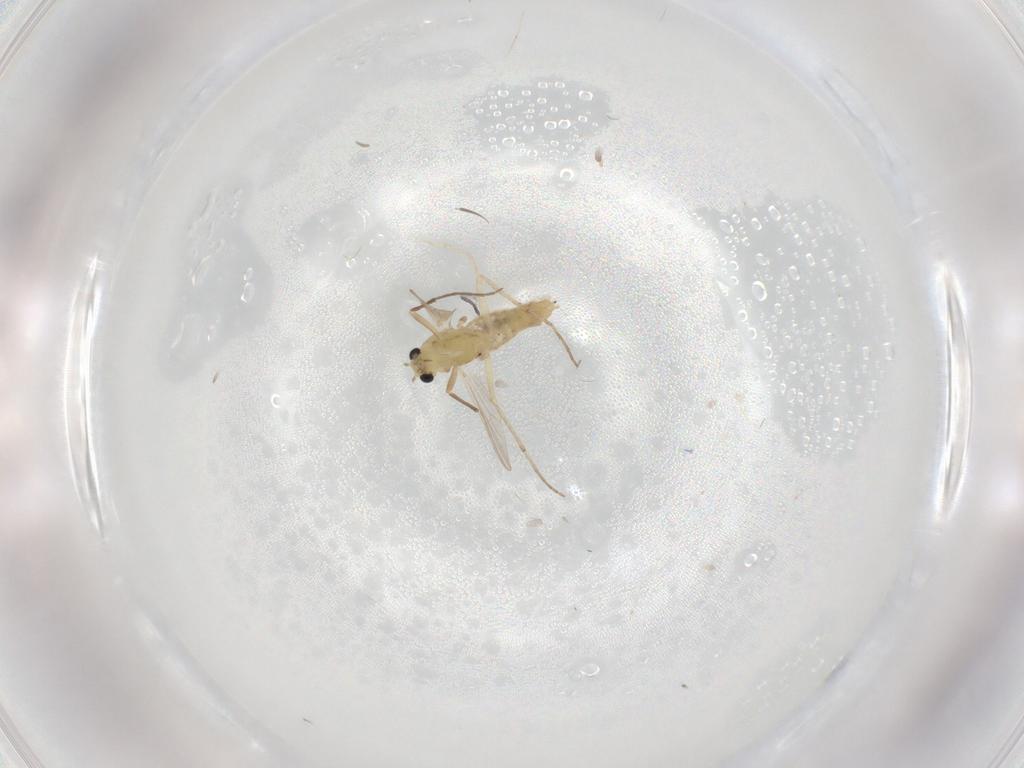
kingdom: Animalia
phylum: Arthropoda
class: Insecta
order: Diptera
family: Chironomidae
